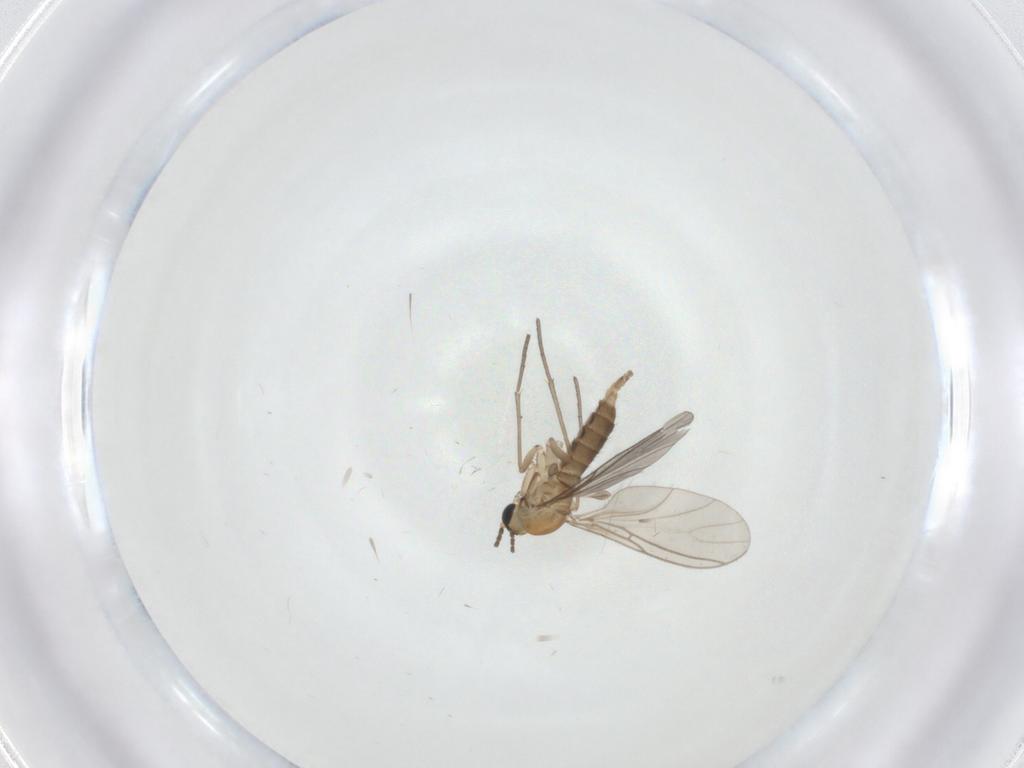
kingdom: Animalia
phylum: Arthropoda
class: Insecta
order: Diptera
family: Sciaridae
